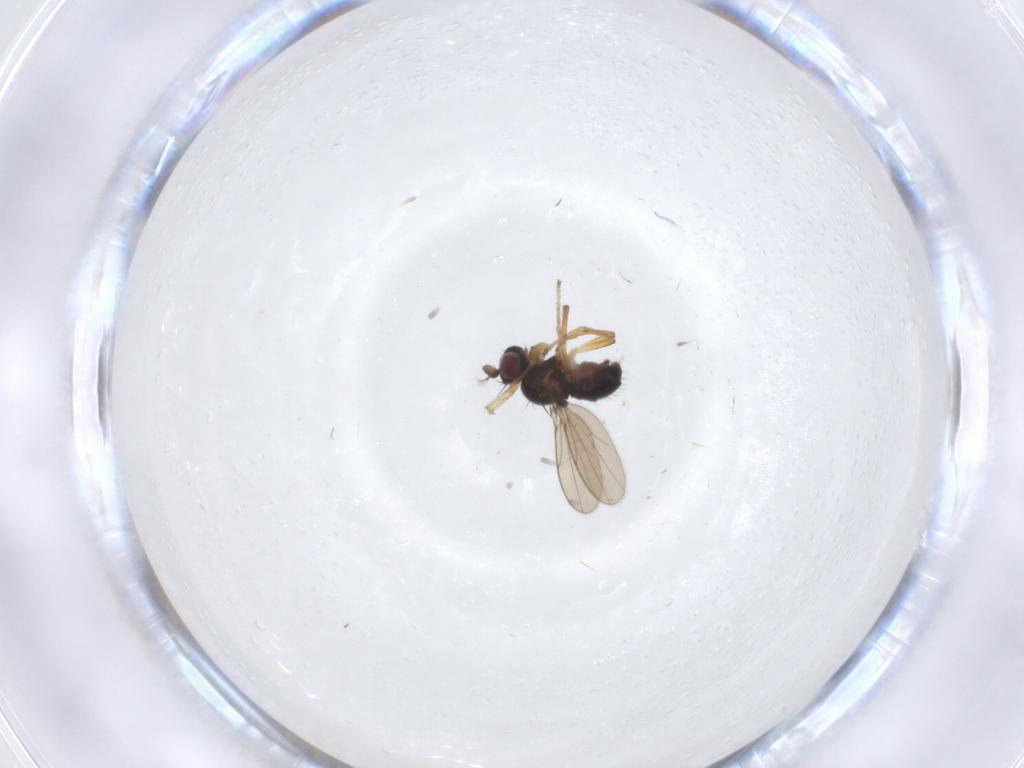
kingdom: Animalia
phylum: Arthropoda
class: Insecta
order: Diptera
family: Ephydridae
